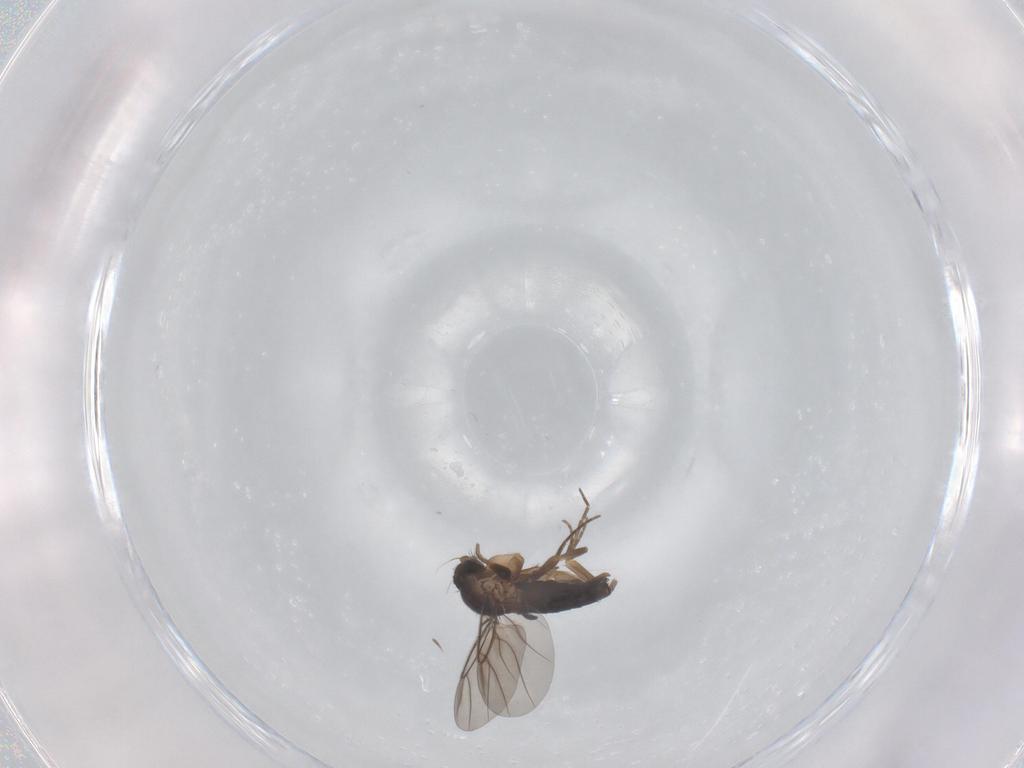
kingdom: Animalia
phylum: Arthropoda
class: Insecta
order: Diptera
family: Phoridae
